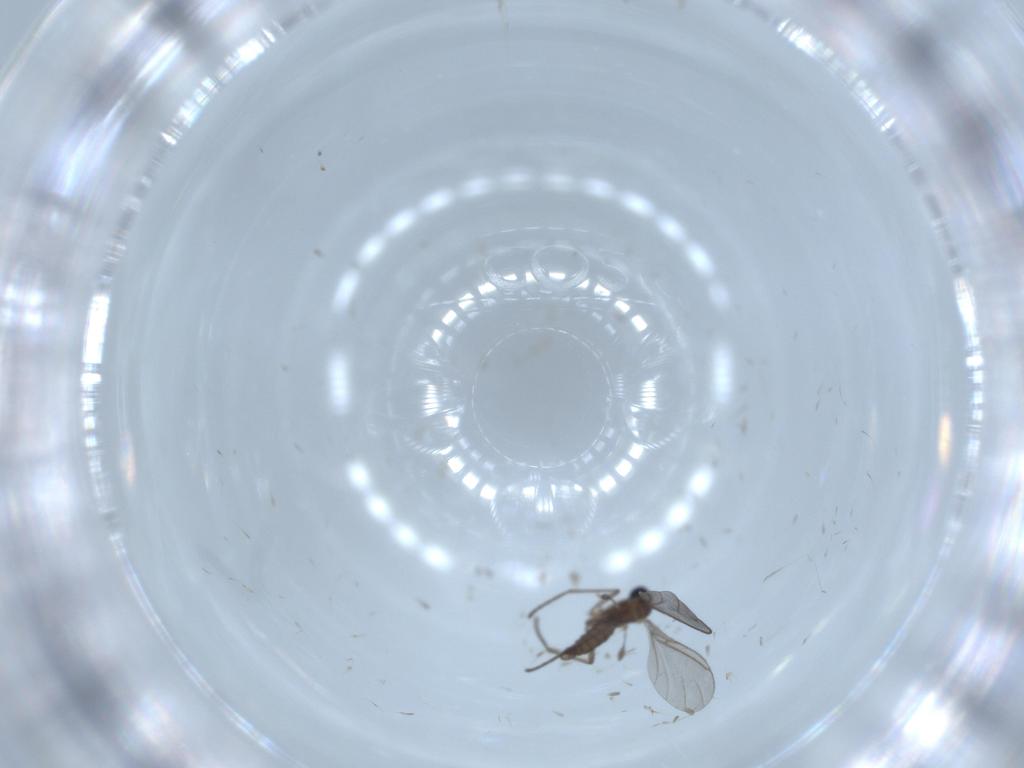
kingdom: Animalia
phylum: Arthropoda
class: Insecta
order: Diptera
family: Sciaridae
